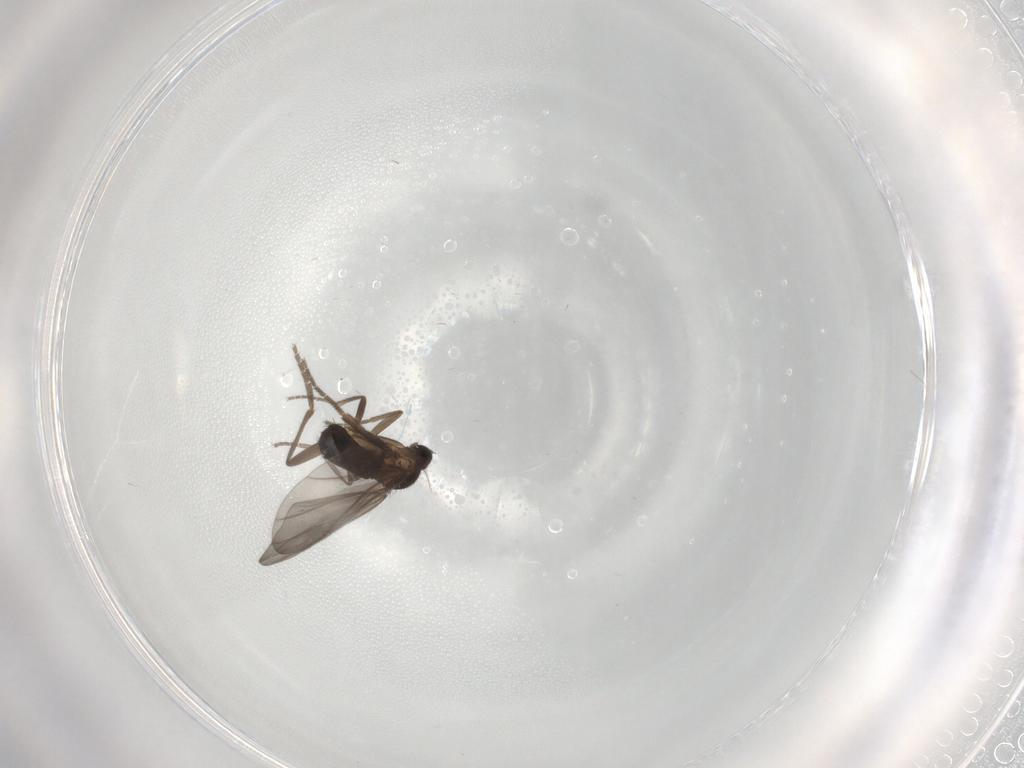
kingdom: Animalia
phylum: Arthropoda
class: Insecta
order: Diptera
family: Phoridae
